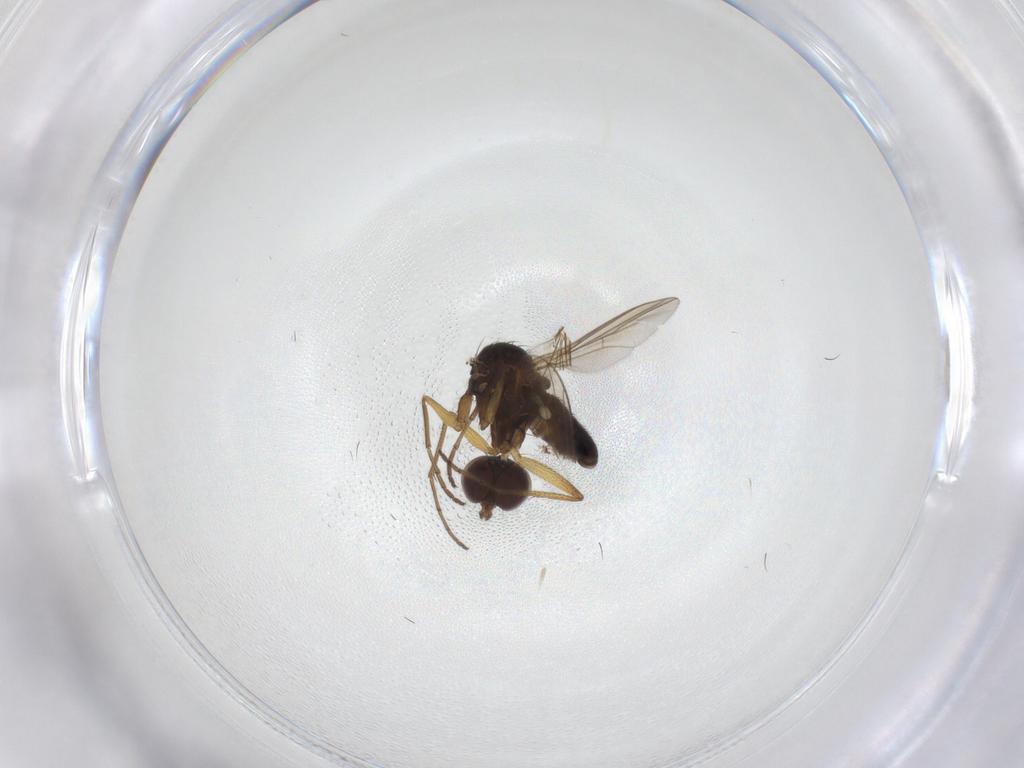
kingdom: Animalia
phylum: Arthropoda
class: Insecta
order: Diptera
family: Dolichopodidae
